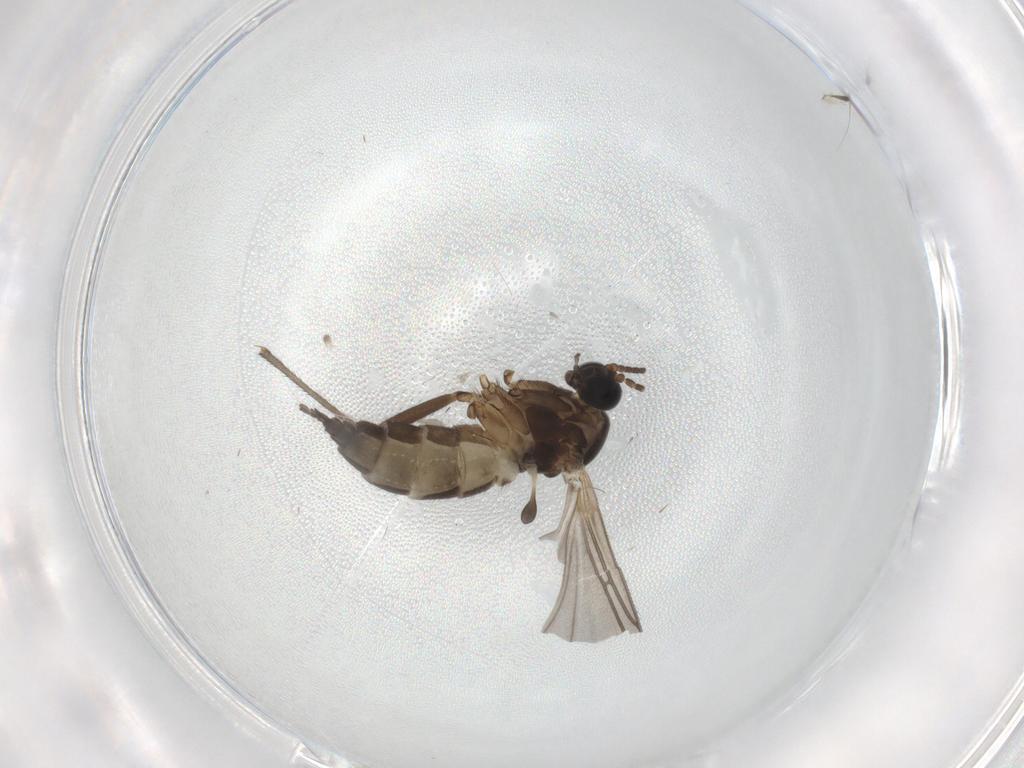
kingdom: Animalia
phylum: Arthropoda
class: Insecta
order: Diptera
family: Sciaridae
